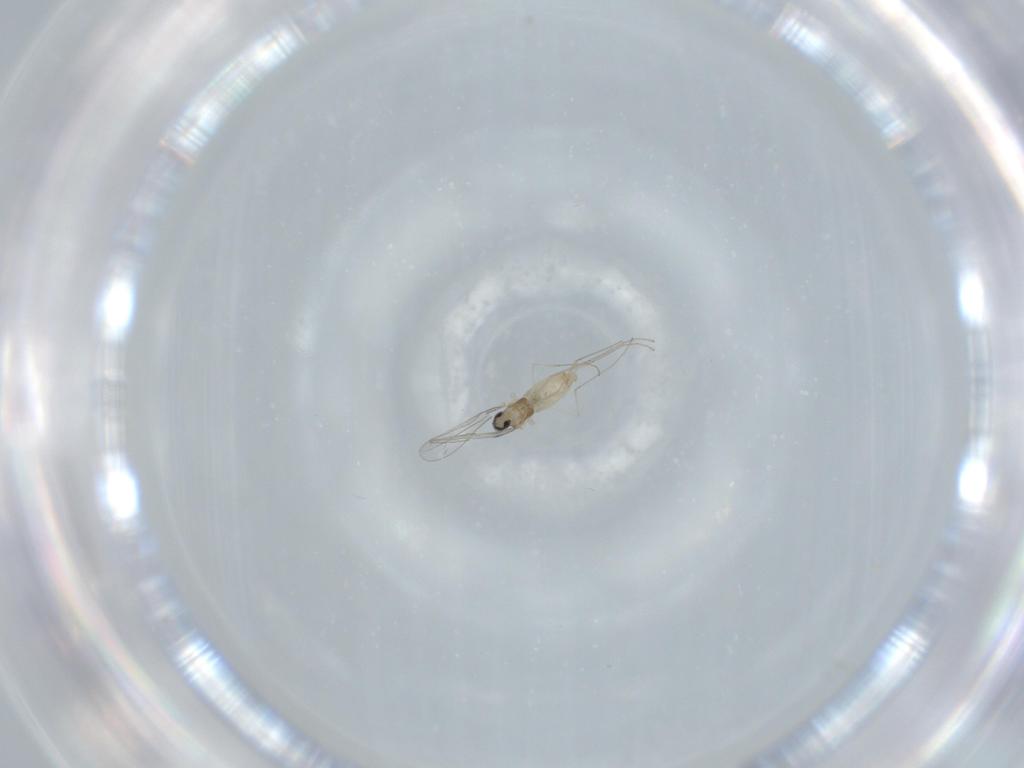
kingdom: Animalia
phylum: Arthropoda
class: Insecta
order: Diptera
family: Cecidomyiidae
